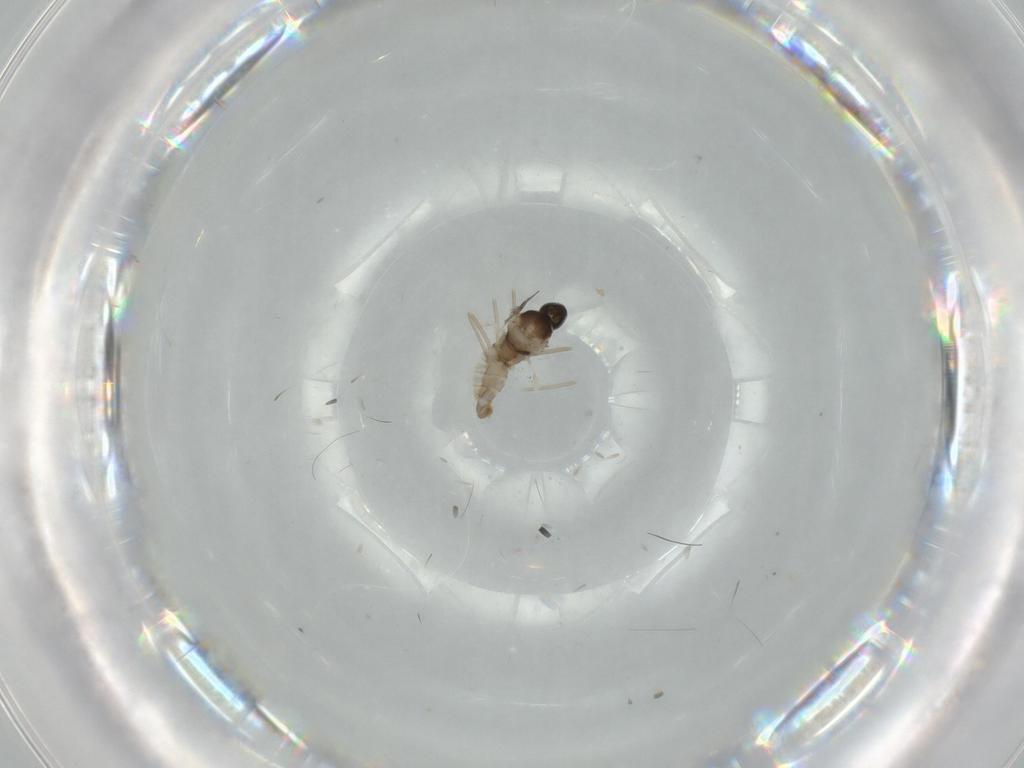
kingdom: Animalia
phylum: Arthropoda
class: Insecta
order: Diptera
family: Cecidomyiidae
